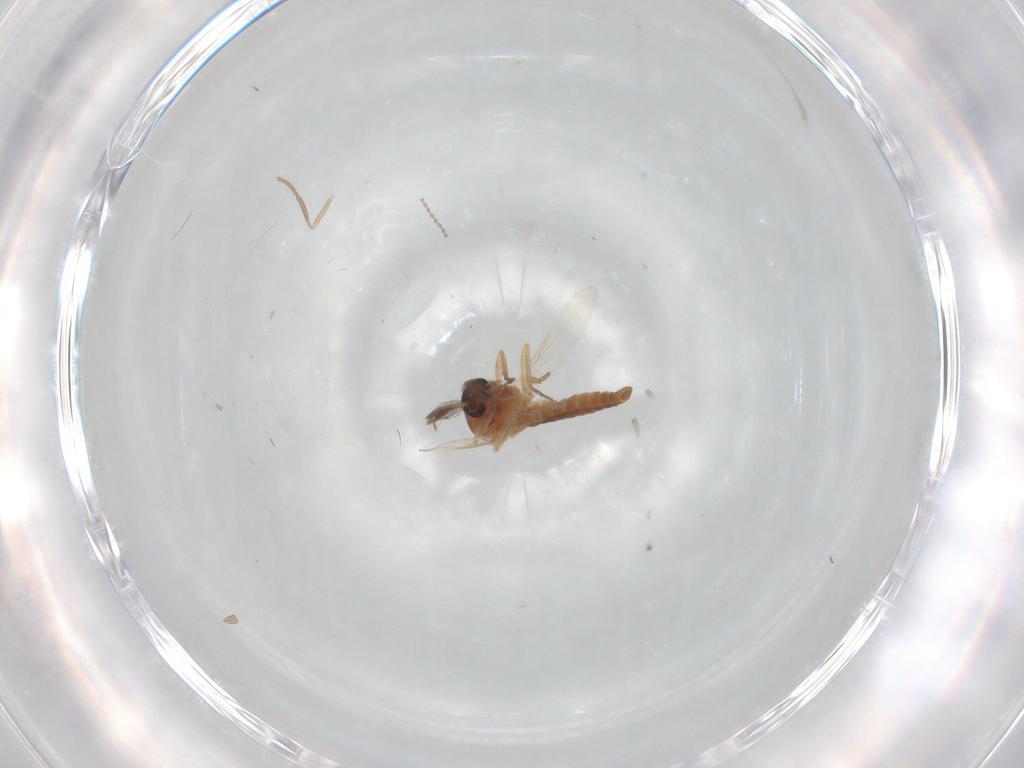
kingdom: Animalia
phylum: Arthropoda
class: Insecta
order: Diptera
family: Ceratopogonidae
